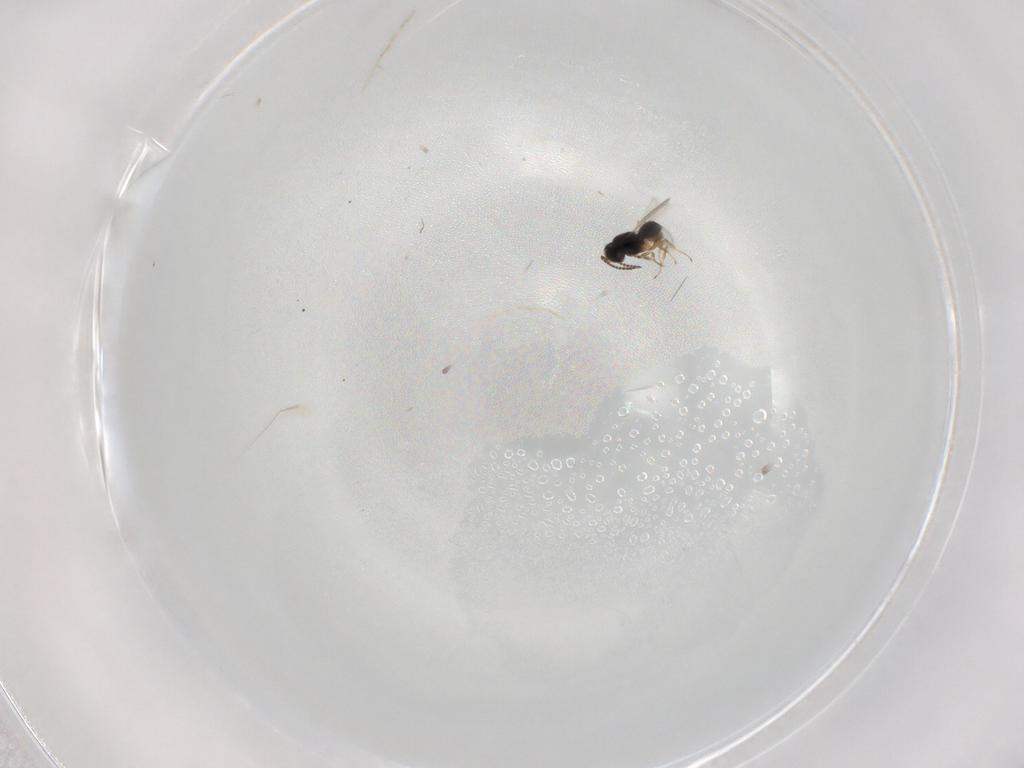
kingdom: Animalia
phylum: Arthropoda
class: Insecta
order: Hymenoptera
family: Scelionidae
